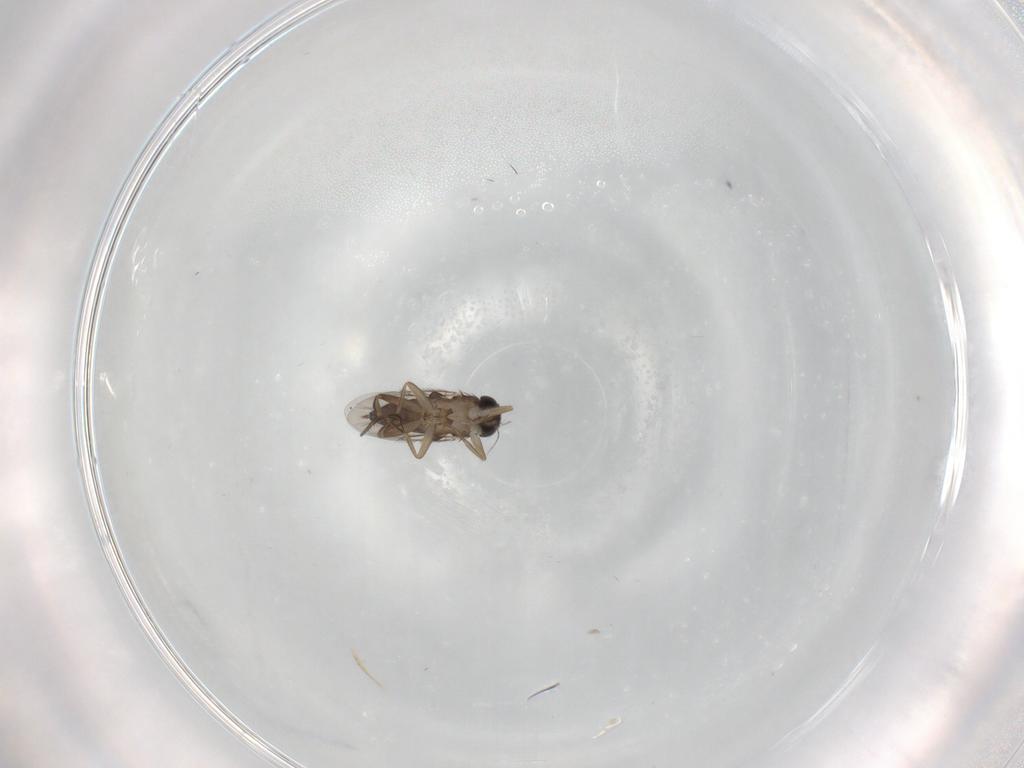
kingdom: Animalia
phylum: Arthropoda
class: Insecta
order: Diptera
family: Phoridae
